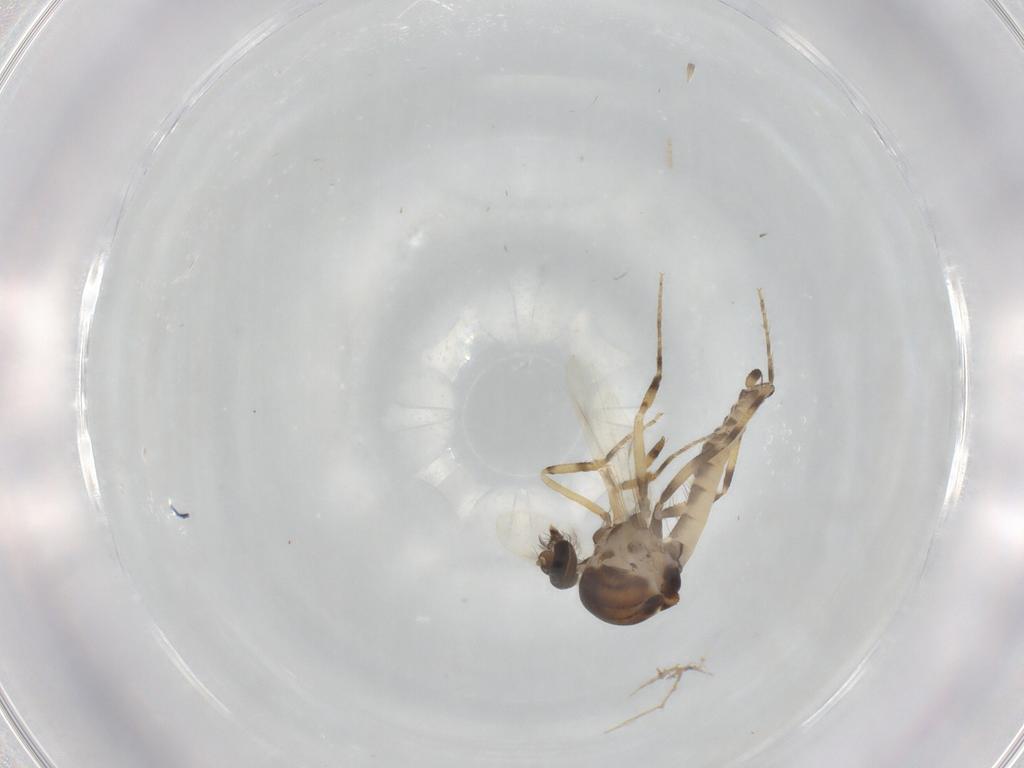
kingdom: Animalia
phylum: Arthropoda
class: Insecta
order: Diptera
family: Ceratopogonidae
